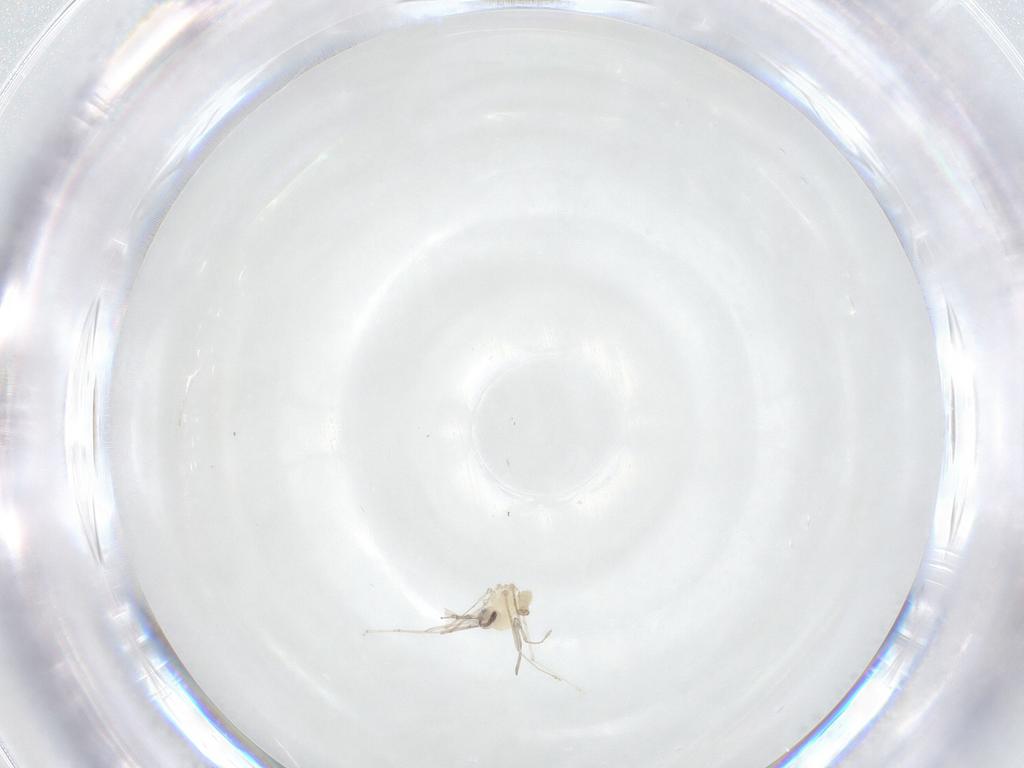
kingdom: Animalia
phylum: Arthropoda
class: Insecta
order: Diptera
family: Cecidomyiidae
